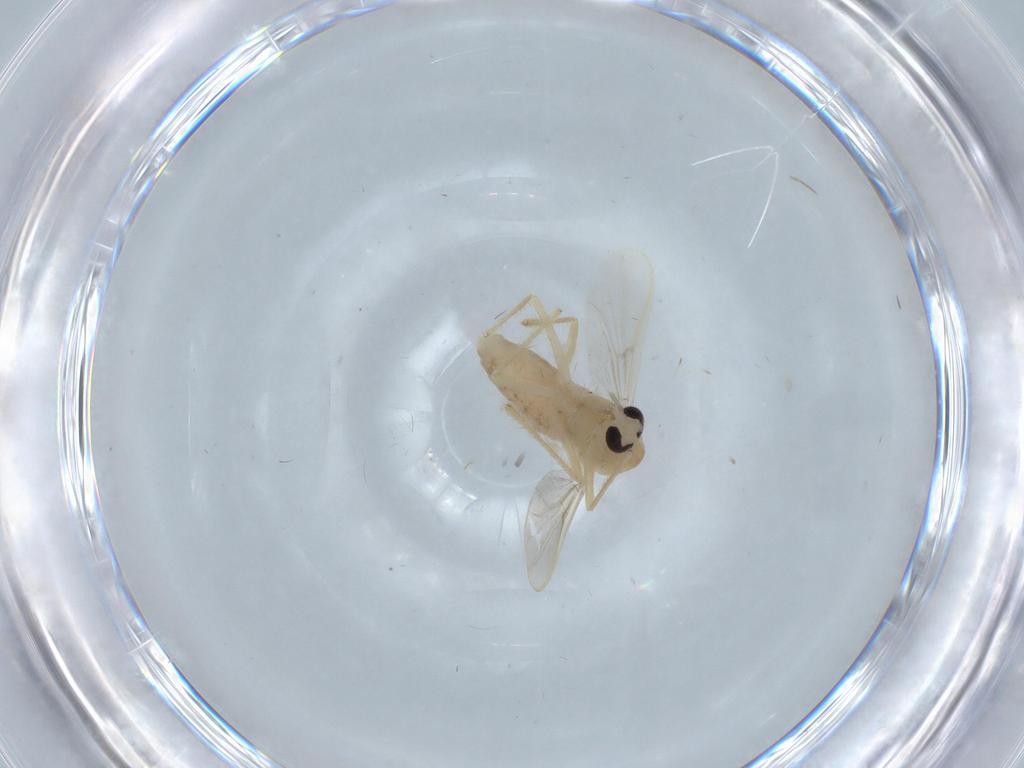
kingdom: Animalia
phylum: Arthropoda
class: Insecta
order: Diptera
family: Chironomidae
